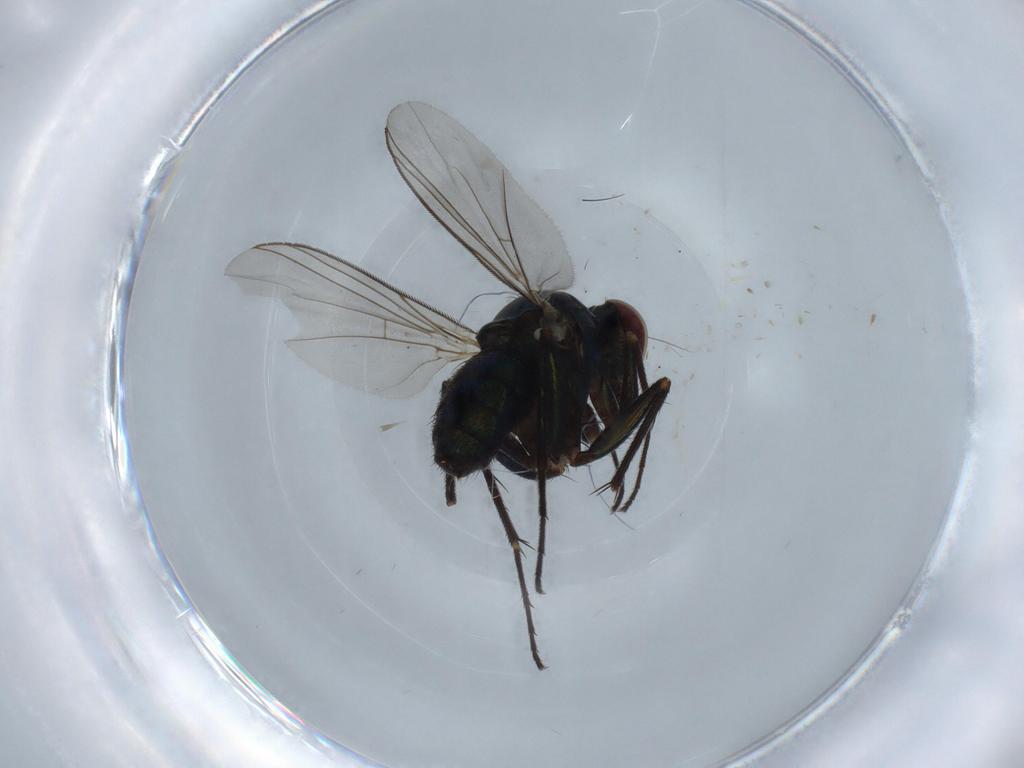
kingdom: Animalia
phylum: Arthropoda
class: Insecta
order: Diptera
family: Dolichopodidae
